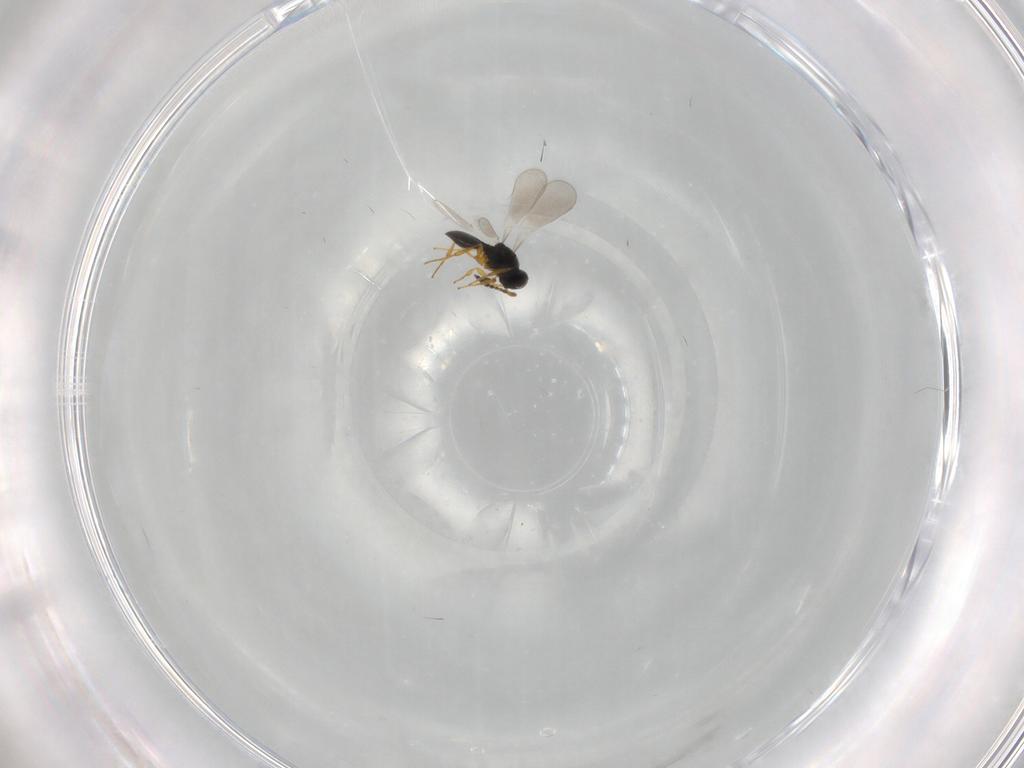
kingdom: Animalia
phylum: Arthropoda
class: Insecta
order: Hymenoptera
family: Platygastridae
